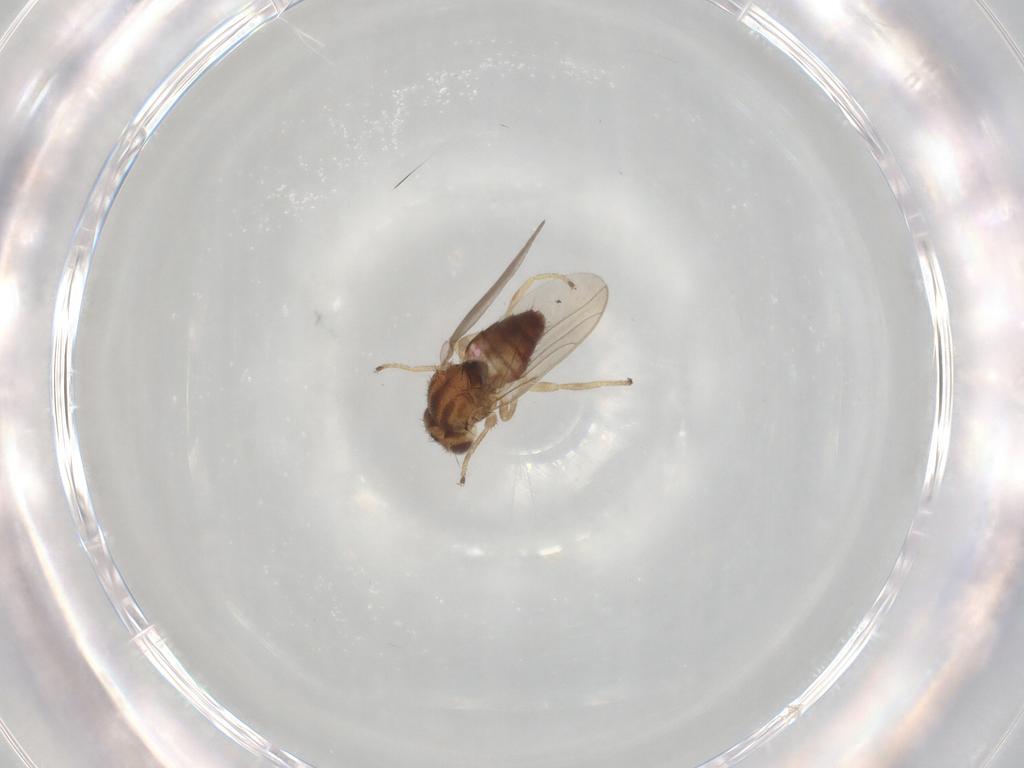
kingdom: Animalia
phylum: Arthropoda
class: Insecta
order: Diptera
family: Chloropidae
